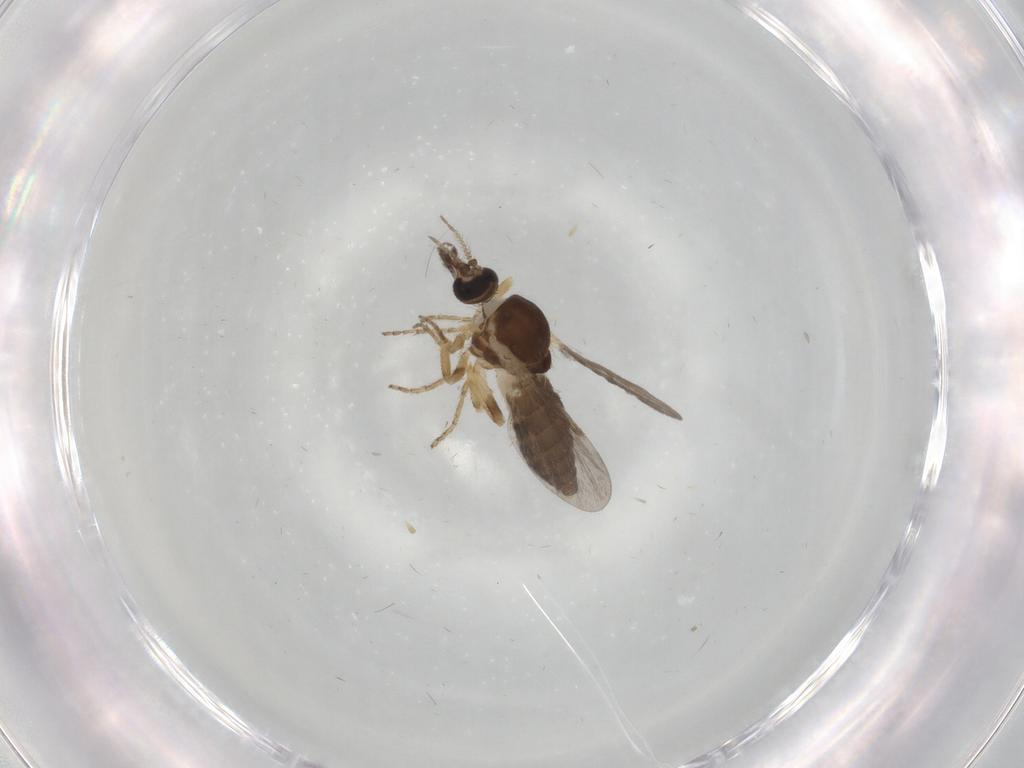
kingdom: Animalia
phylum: Arthropoda
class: Insecta
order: Diptera
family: Ceratopogonidae
